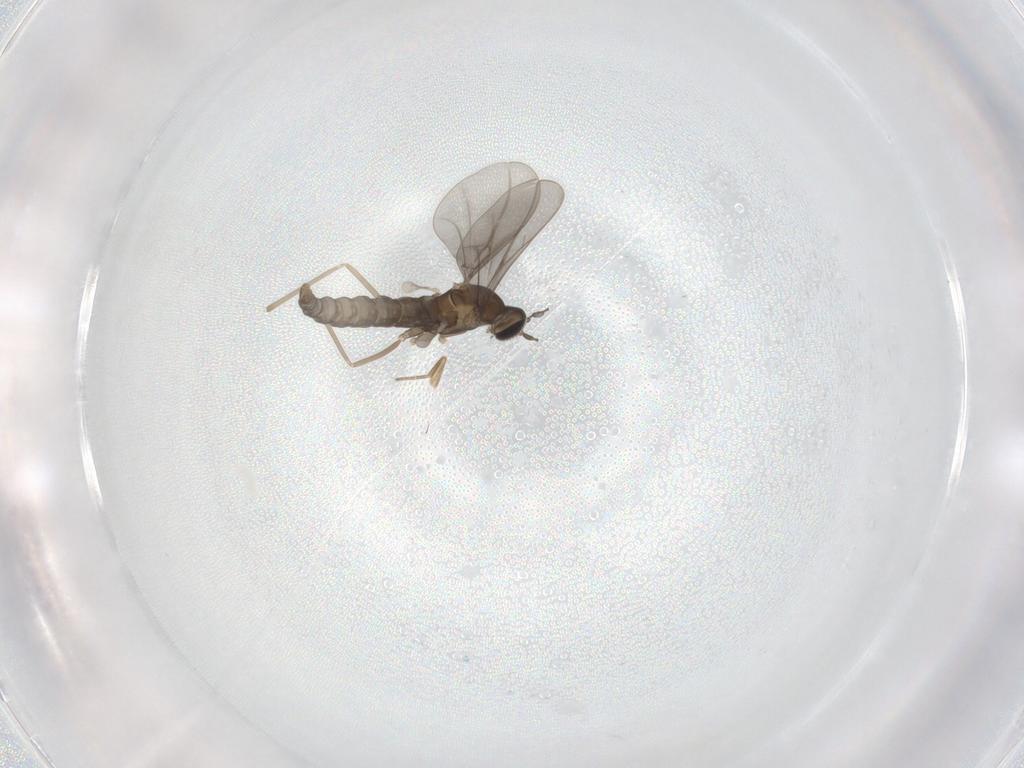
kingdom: Animalia
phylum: Arthropoda
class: Insecta
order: Diptera
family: Cecidomyiidae
